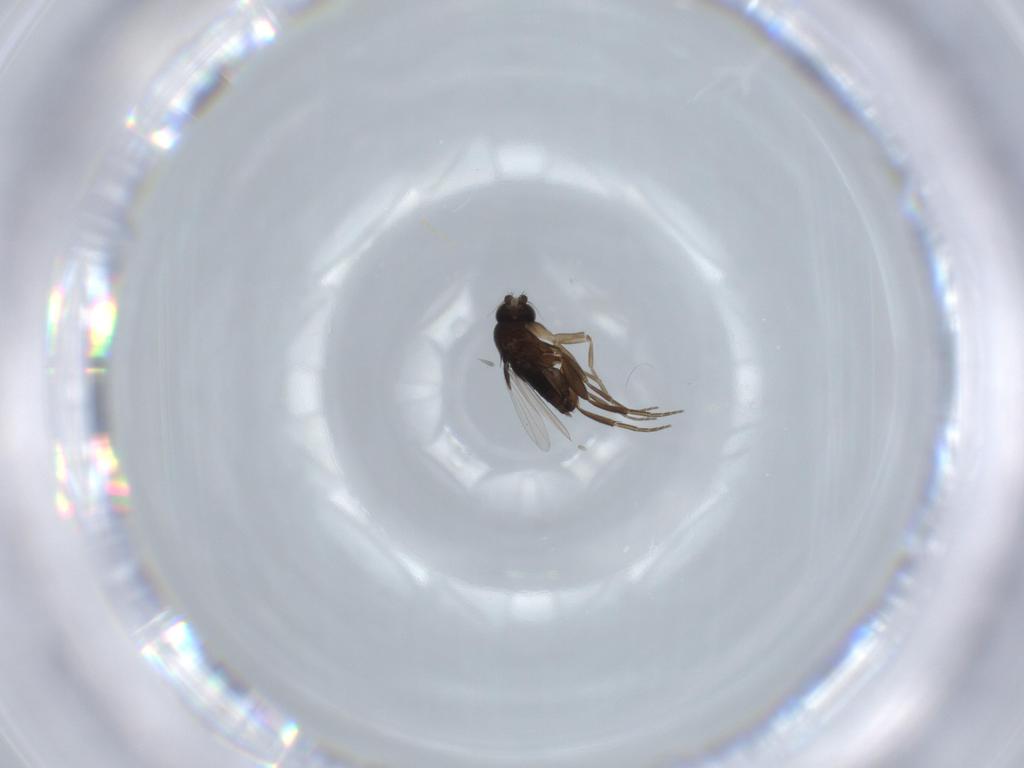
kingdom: Animalia
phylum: Arthropoda
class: Insecta
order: Diptera
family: Phoridae
